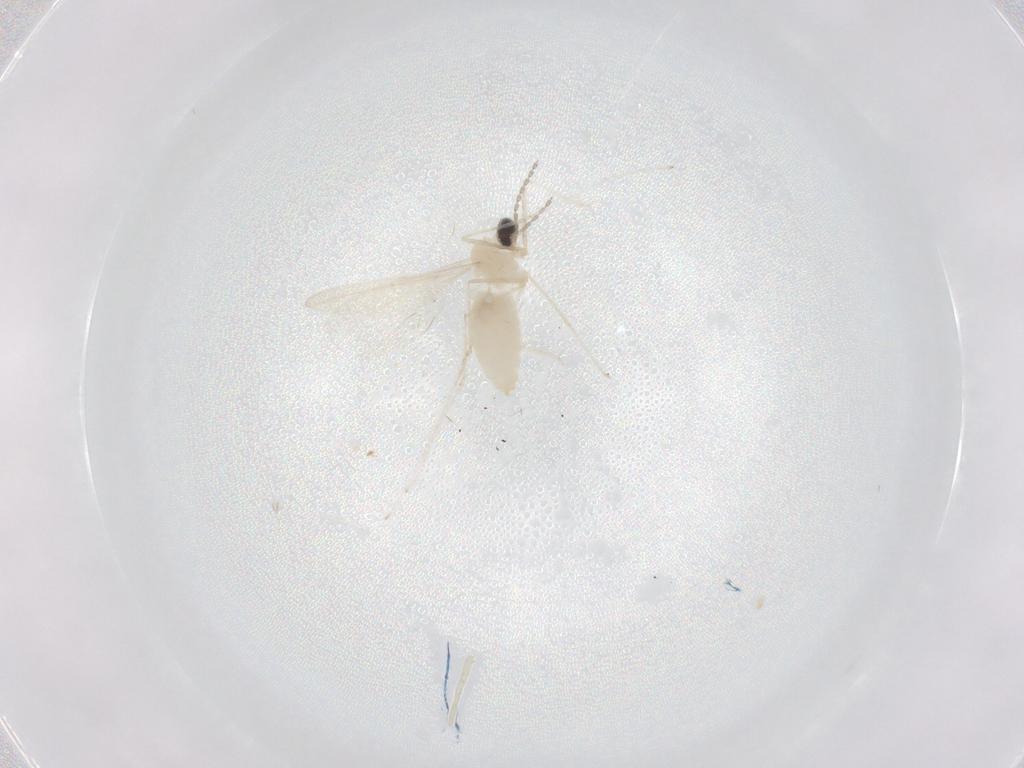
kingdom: Animalia
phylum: Arthropoda
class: Insecta
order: Diptera
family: Cecidomyiidae
